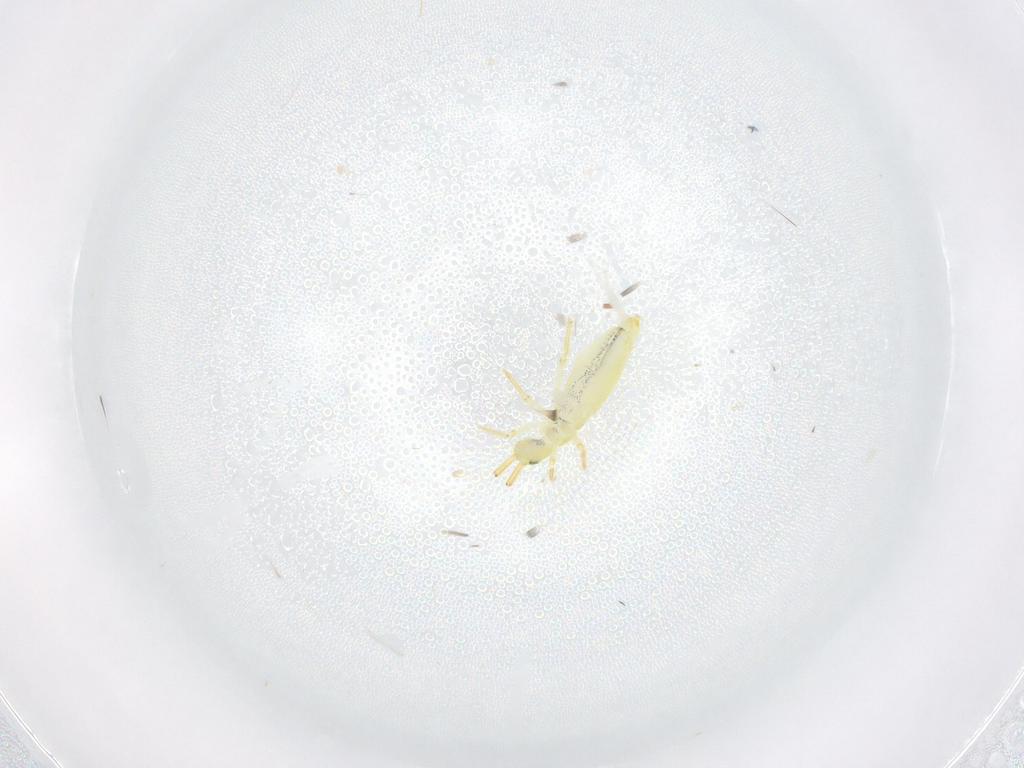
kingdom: Animalia
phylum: Arthropoda
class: Collembola
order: Entomobryomorpha
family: Paronellidae
